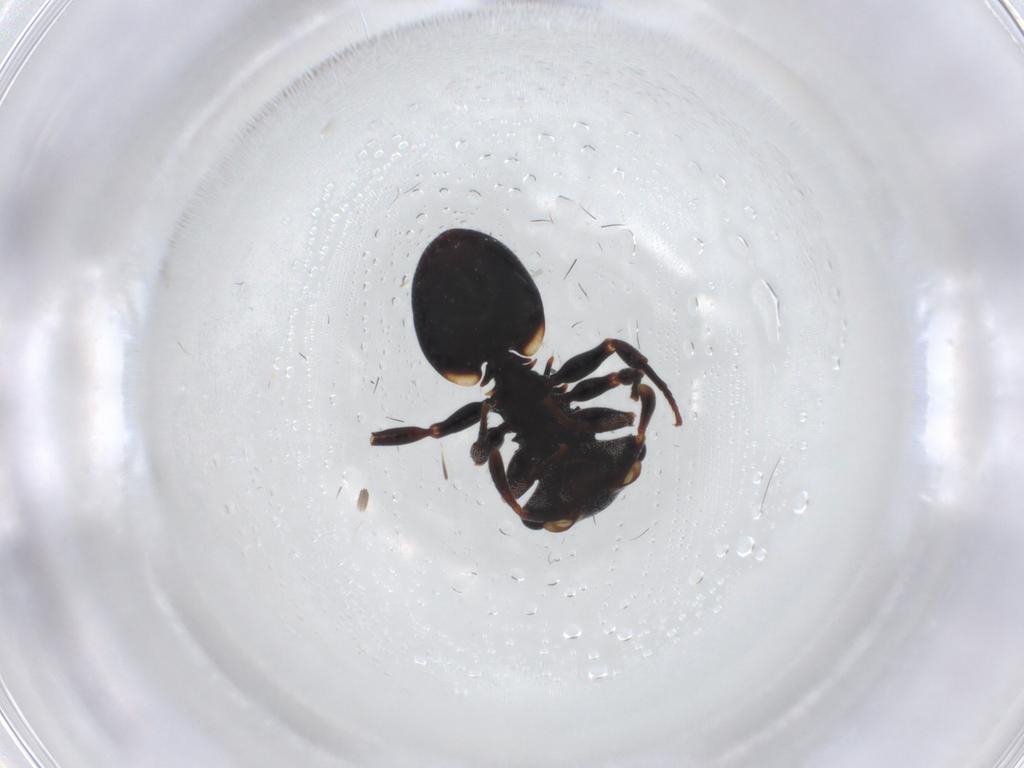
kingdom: Animalia
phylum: Arthropoda
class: Insecta
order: Hymenoptera
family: Formicidae
